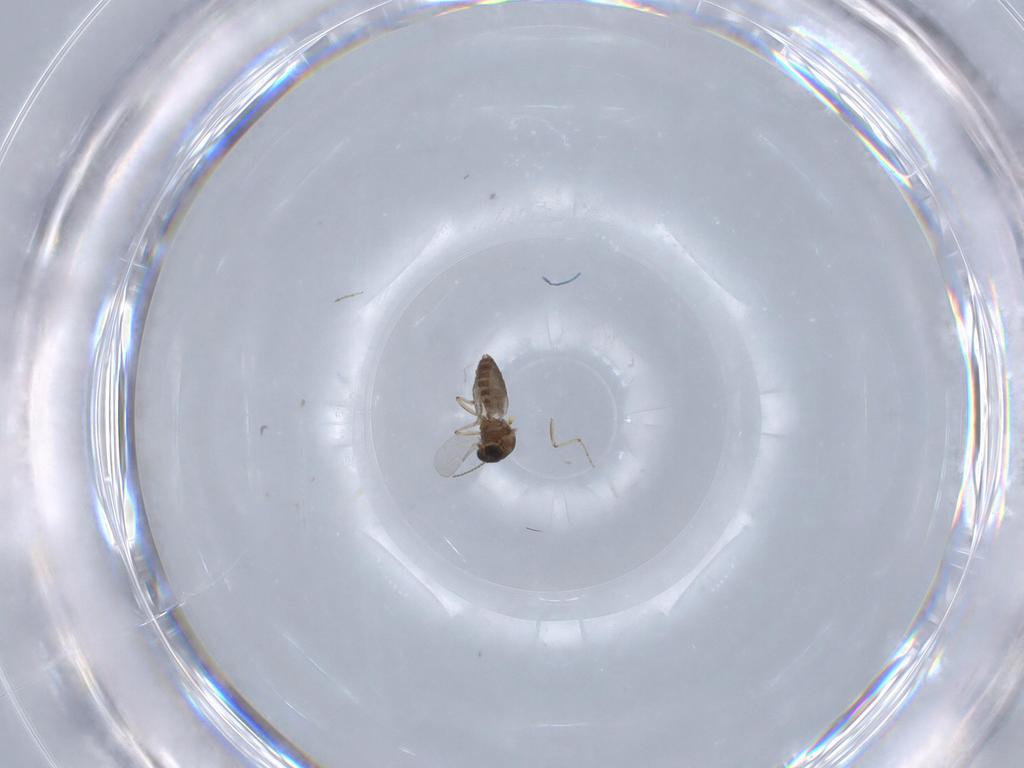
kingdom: Animalia
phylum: Arthropoda
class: Insecta
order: Diptera
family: Ceratopogonidae
